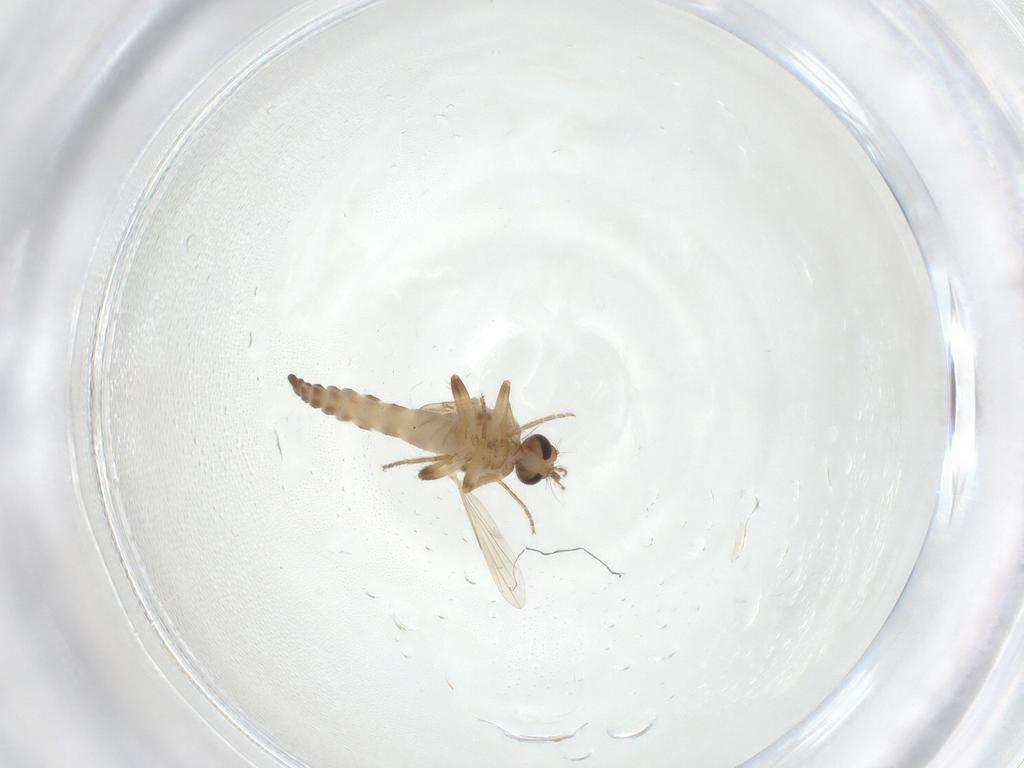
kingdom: Animalia
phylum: Arthropoda
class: Insecta
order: Diptera
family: Ceratopogonidae
